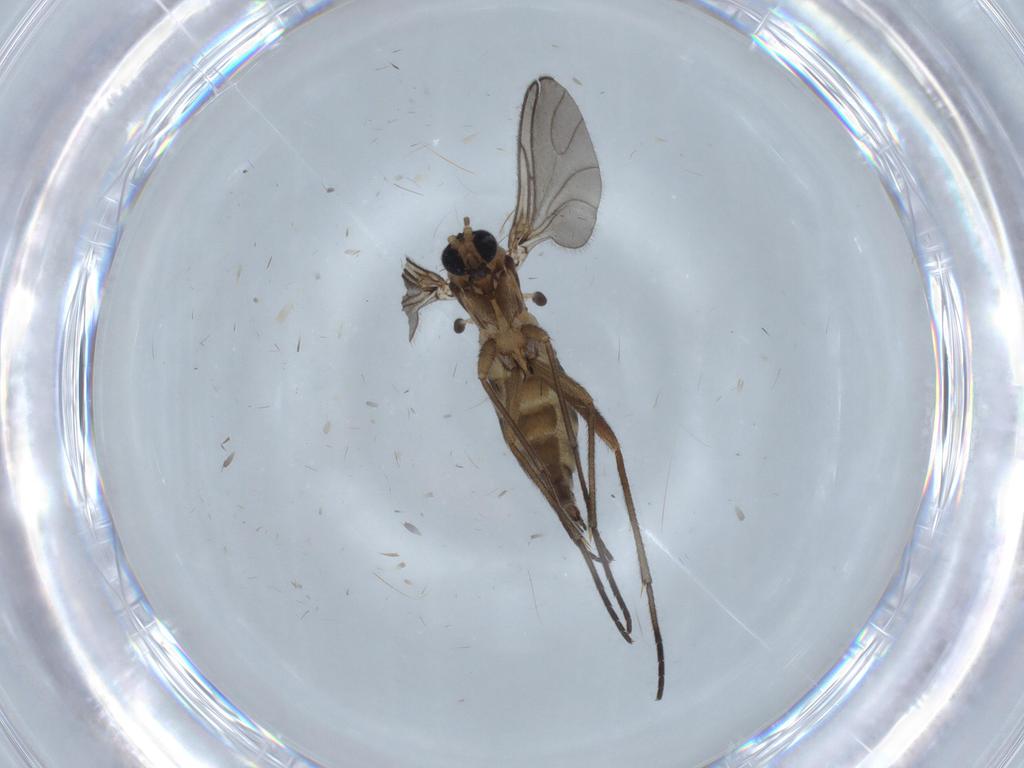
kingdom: Animalia
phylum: Arthropoda
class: Insecta
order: Diptera
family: Sciaridae
